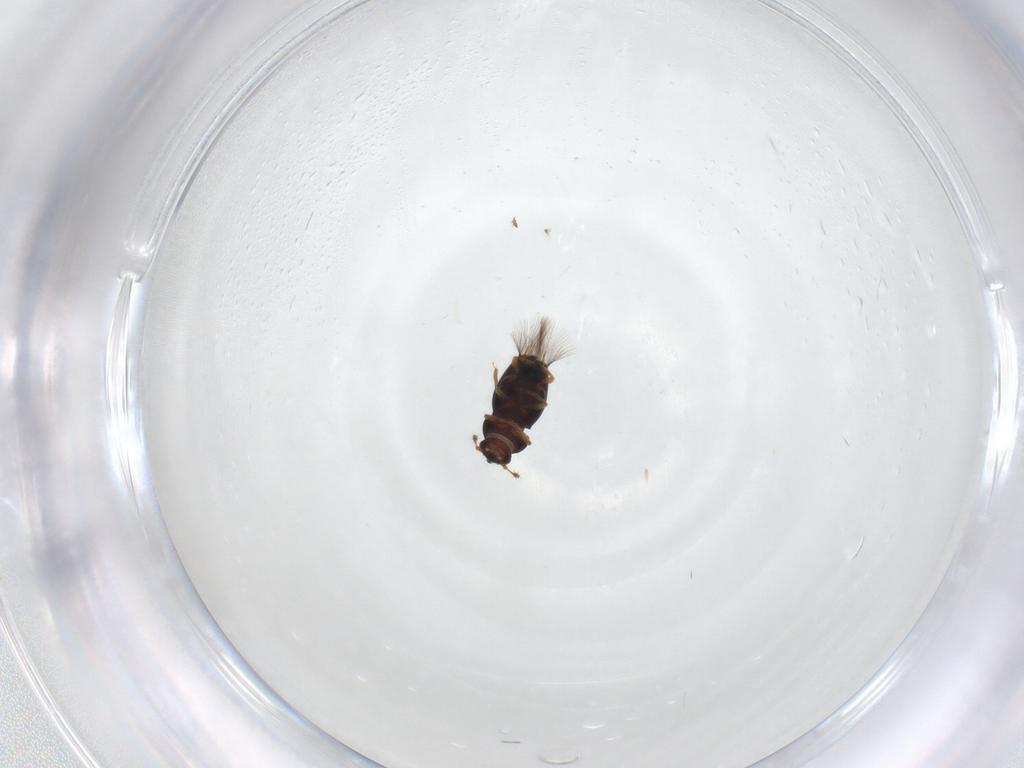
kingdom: Animalia
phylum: Arthropoda
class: Insecta
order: Coleoptera
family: Ptiliidae
